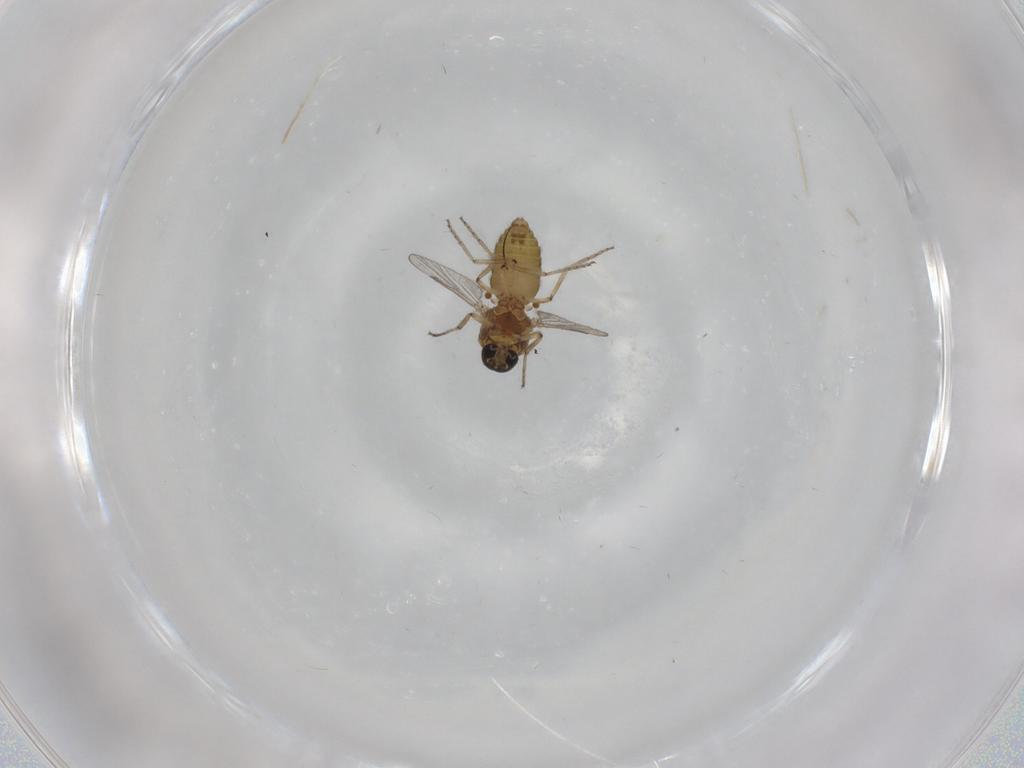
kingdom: Animalia
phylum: Arthropoda
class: Insecta
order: Diptera
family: Ceratopogonidae
